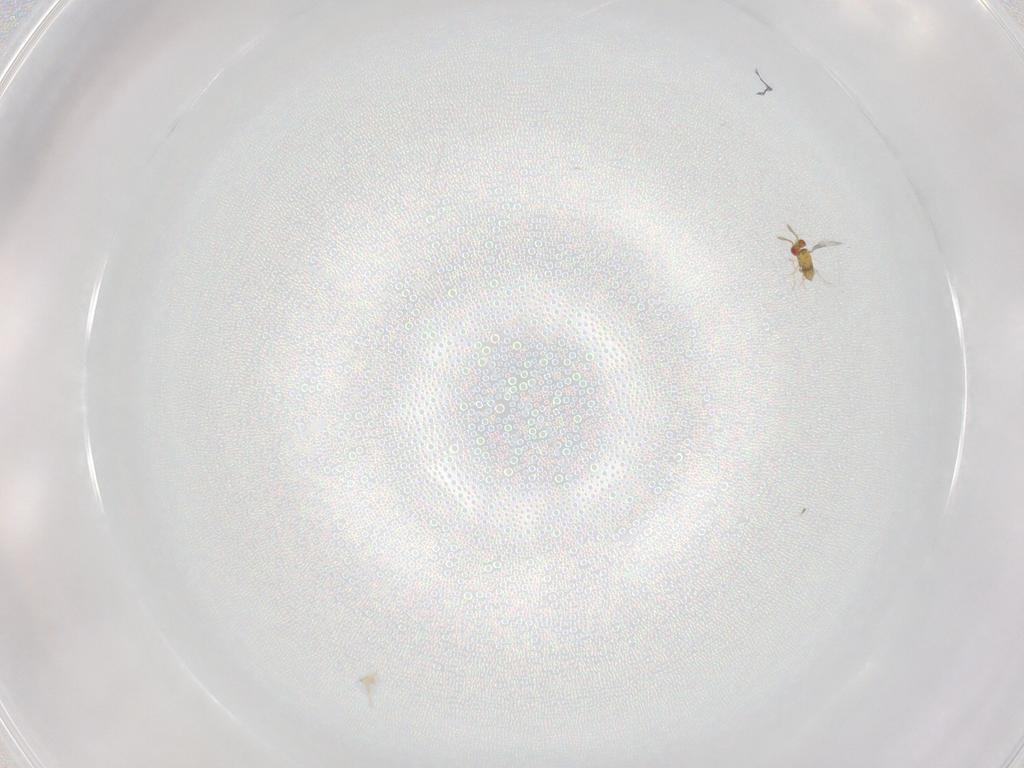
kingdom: Animalia
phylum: Arthropoda
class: Insecta
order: Hymenoptera
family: Trichogrammatidae
